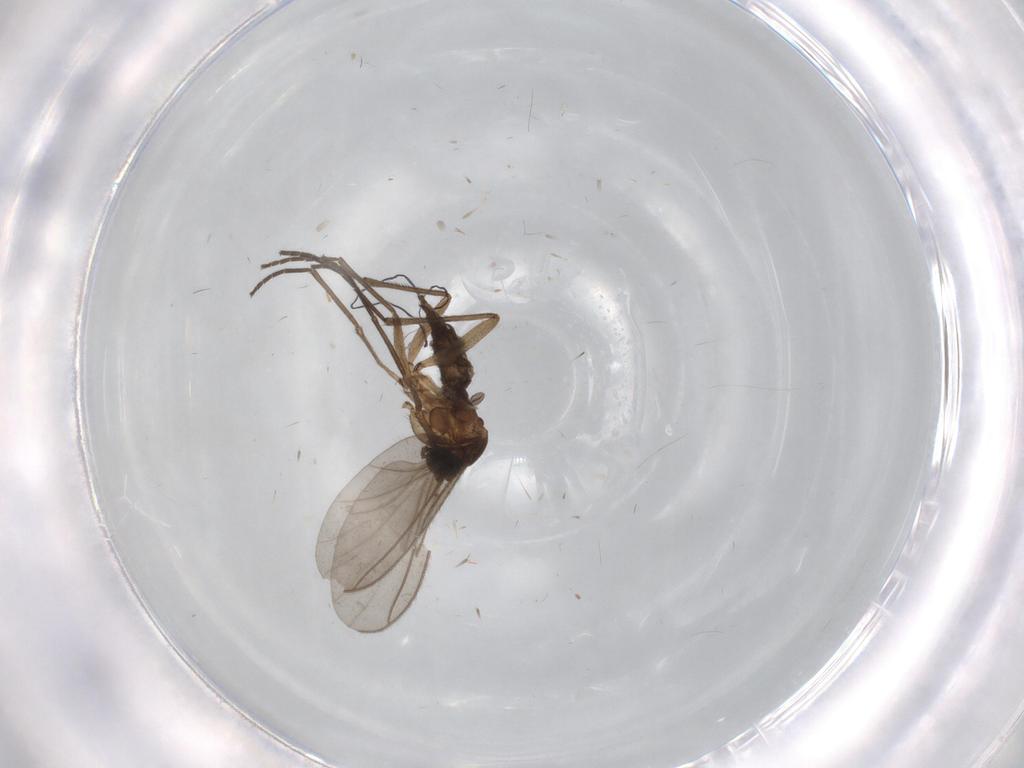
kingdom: Animalia
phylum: Arthropoda
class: Insecta
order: Diptera
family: Sciaridae
